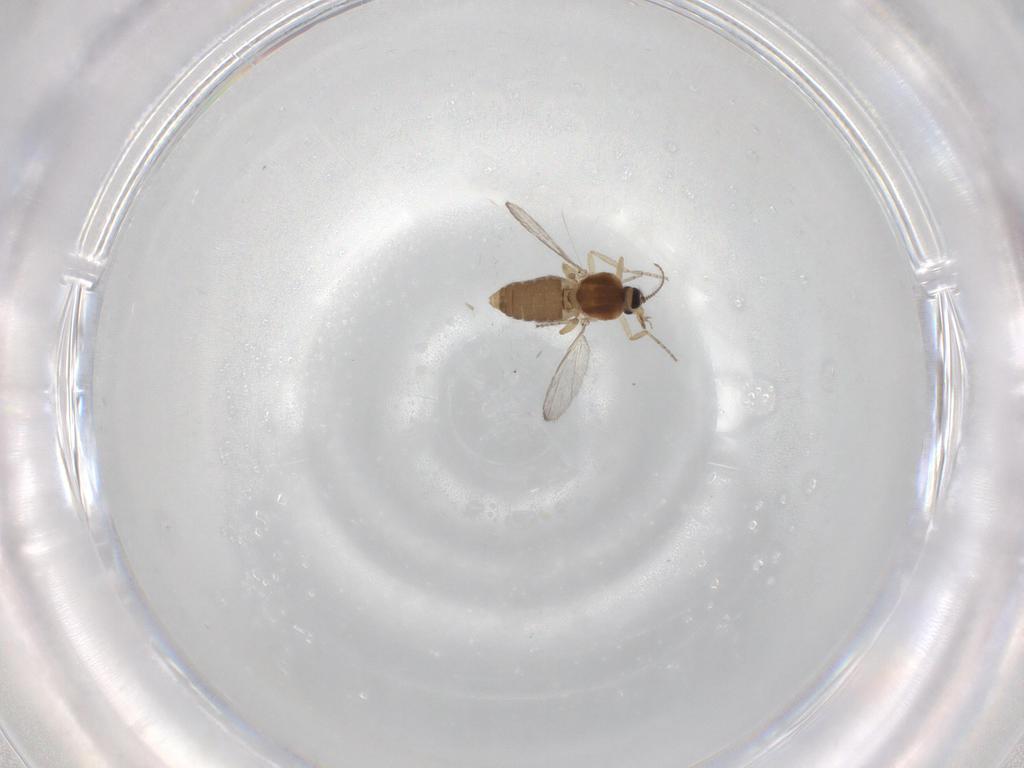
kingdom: Animalia
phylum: Arthropoda
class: Insecta
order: Diptera
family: Ceratopogonidae
